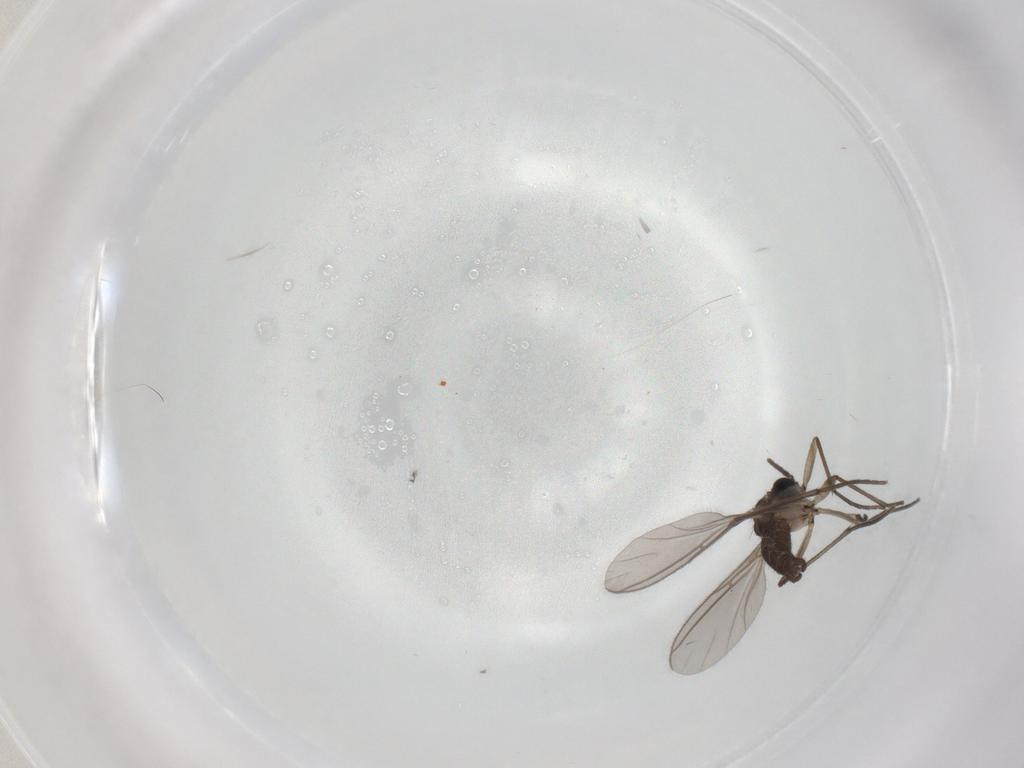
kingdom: Animalia
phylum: Arthropoda
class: Insecta
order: Diptera
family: Sciaridae
